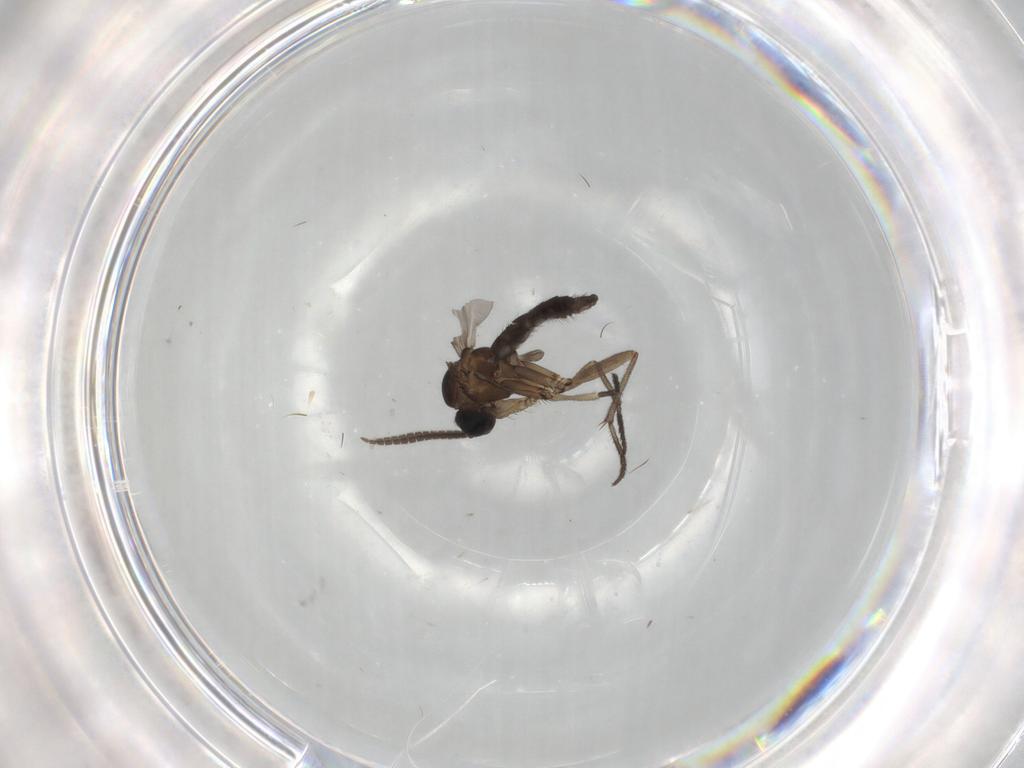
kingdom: Animalia
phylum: Arthropoda
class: Insecta
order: Diptera
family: Sciaridae
